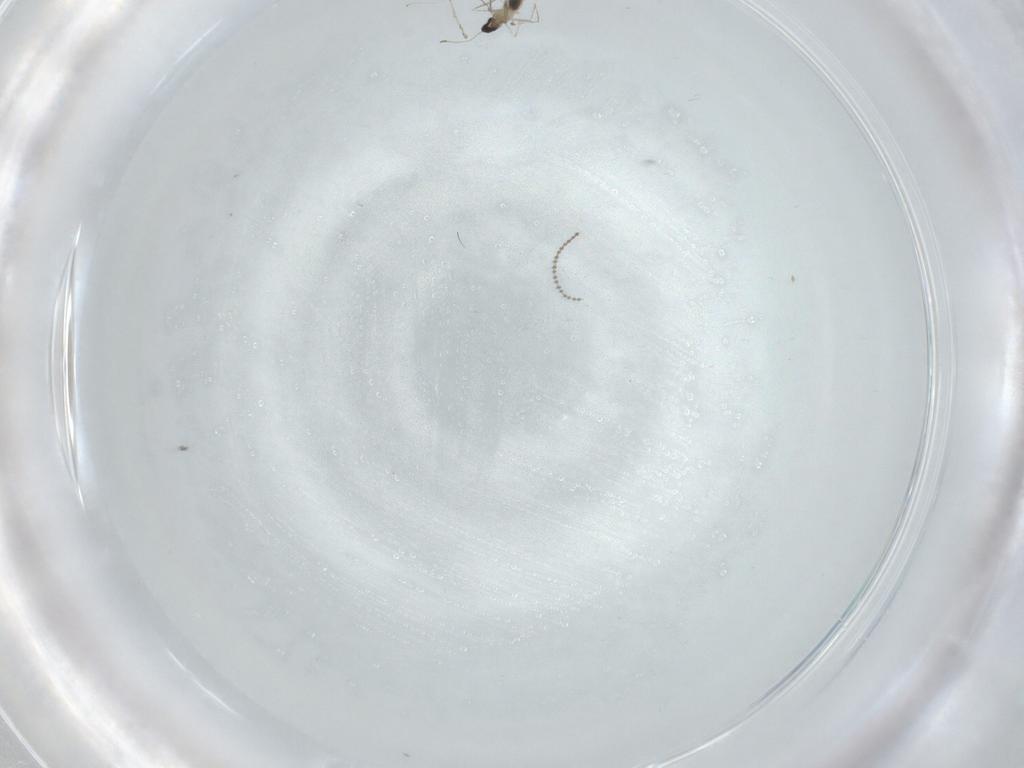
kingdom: Animalia
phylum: Arthropoda
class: Insecta
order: Diptera
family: Cecidomyiidae
